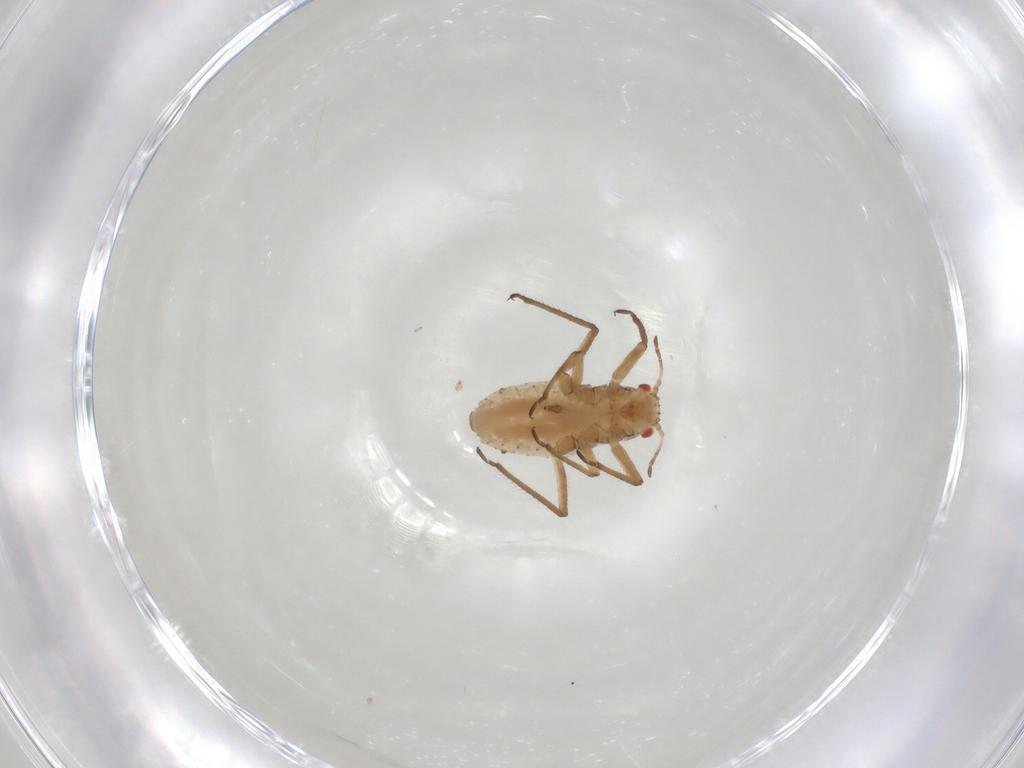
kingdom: Animalia
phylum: Arthropoda
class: Insecta
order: Hemiptera
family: Aphididae
